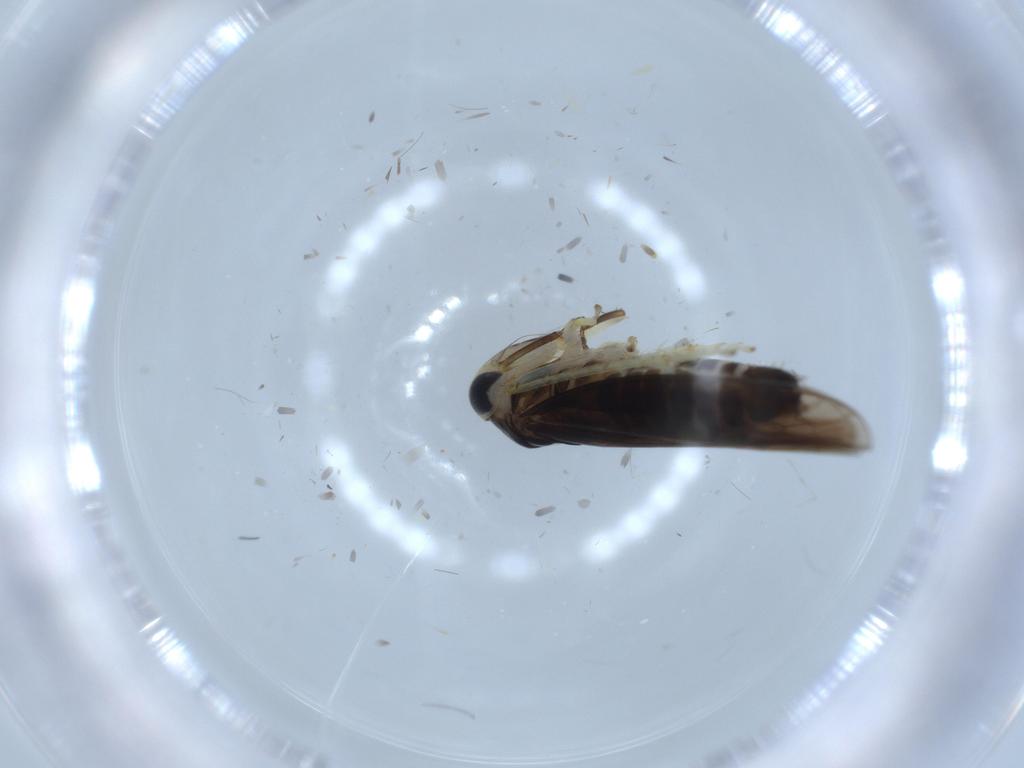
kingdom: Animalia
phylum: Arthropoda
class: Insecta
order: Hemiptera
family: Cicadellidae
